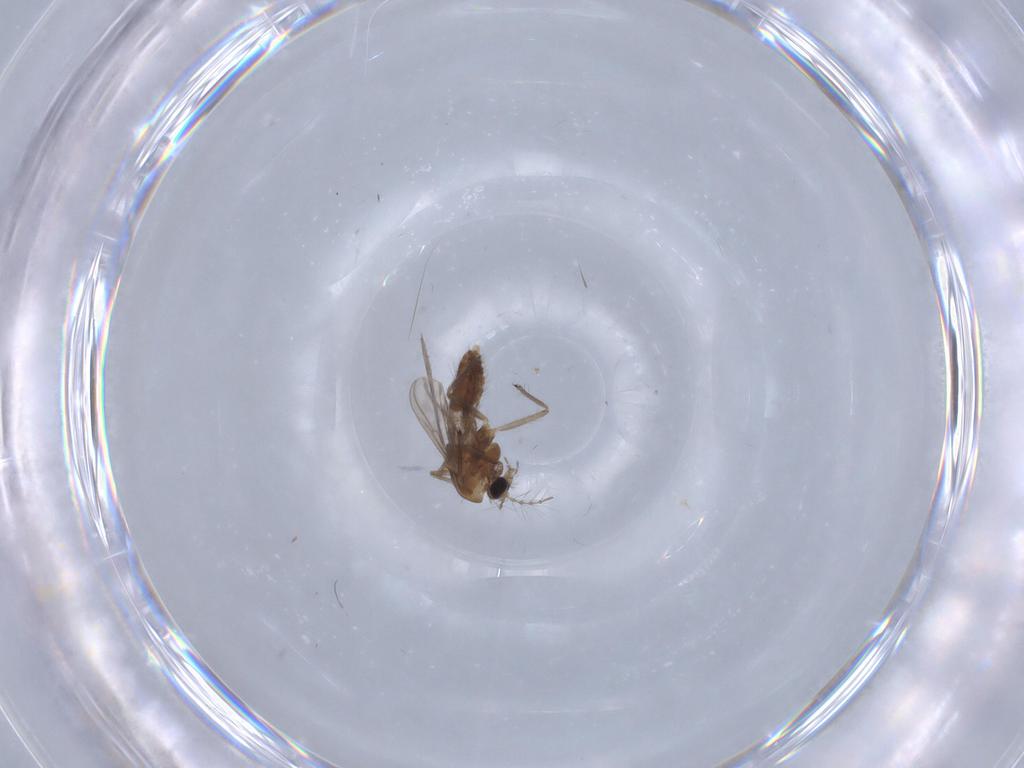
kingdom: Animalia
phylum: Arthropoda
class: Insecta
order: Diptera
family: Chironomidae
